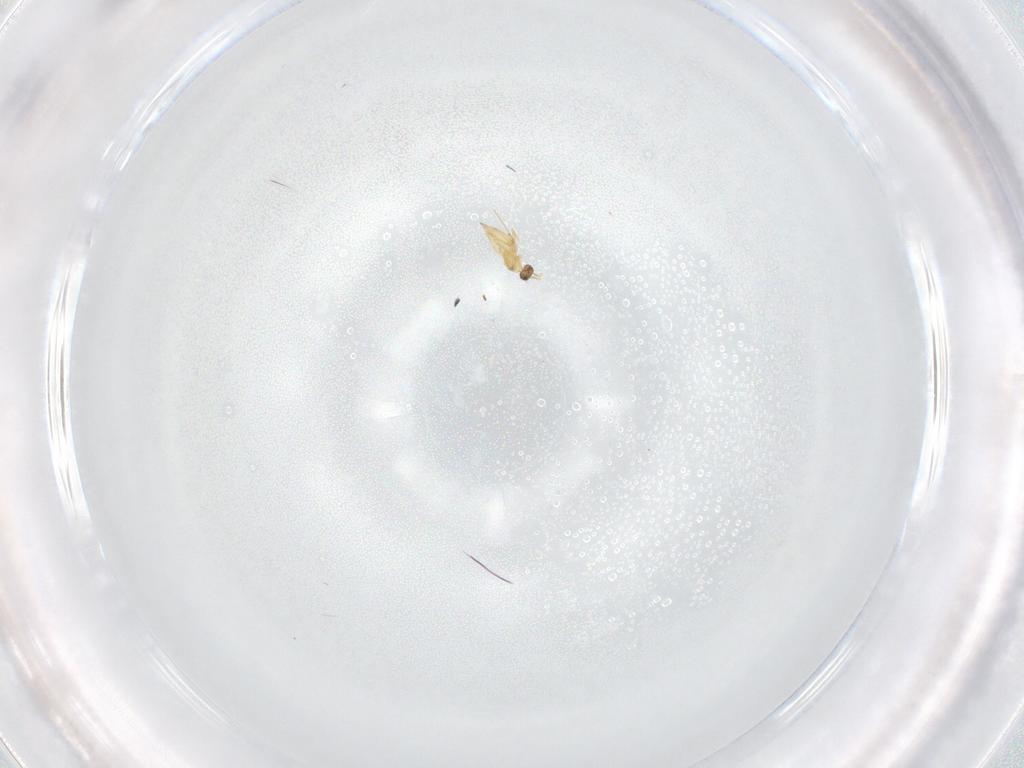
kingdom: Animalia
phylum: Arthropoda
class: Insecta
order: Hymenoptera
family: Mymaridae
